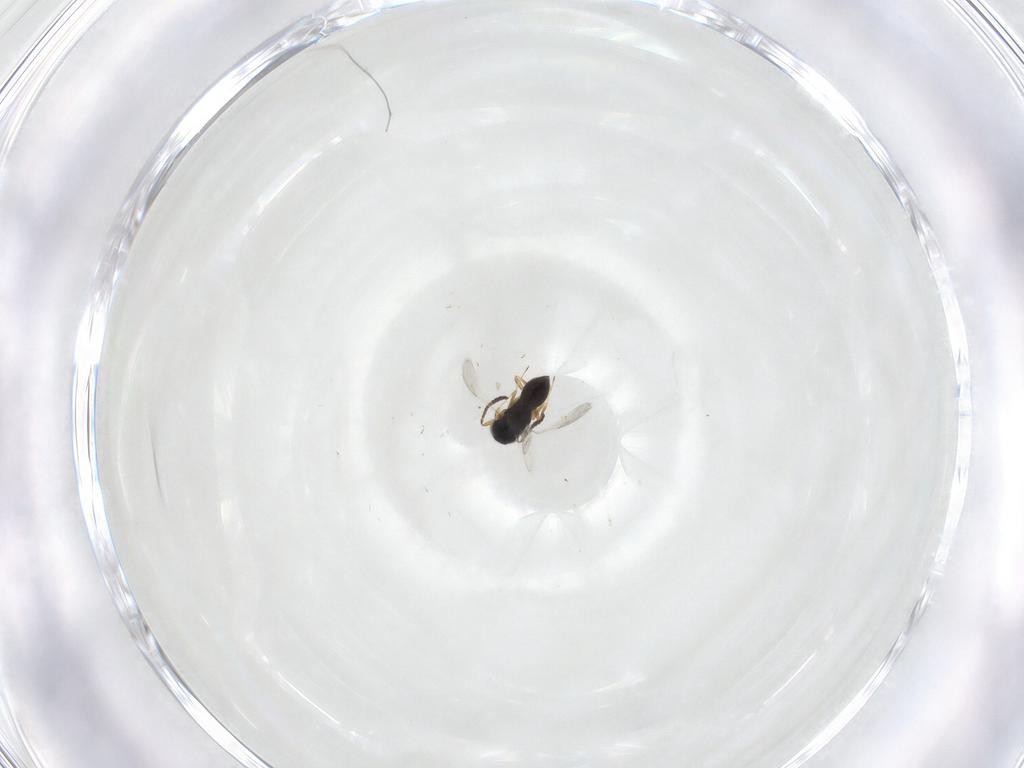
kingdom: Animalia
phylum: Arthropoda
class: Insecta
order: Hymenoptera
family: Scelionidae
